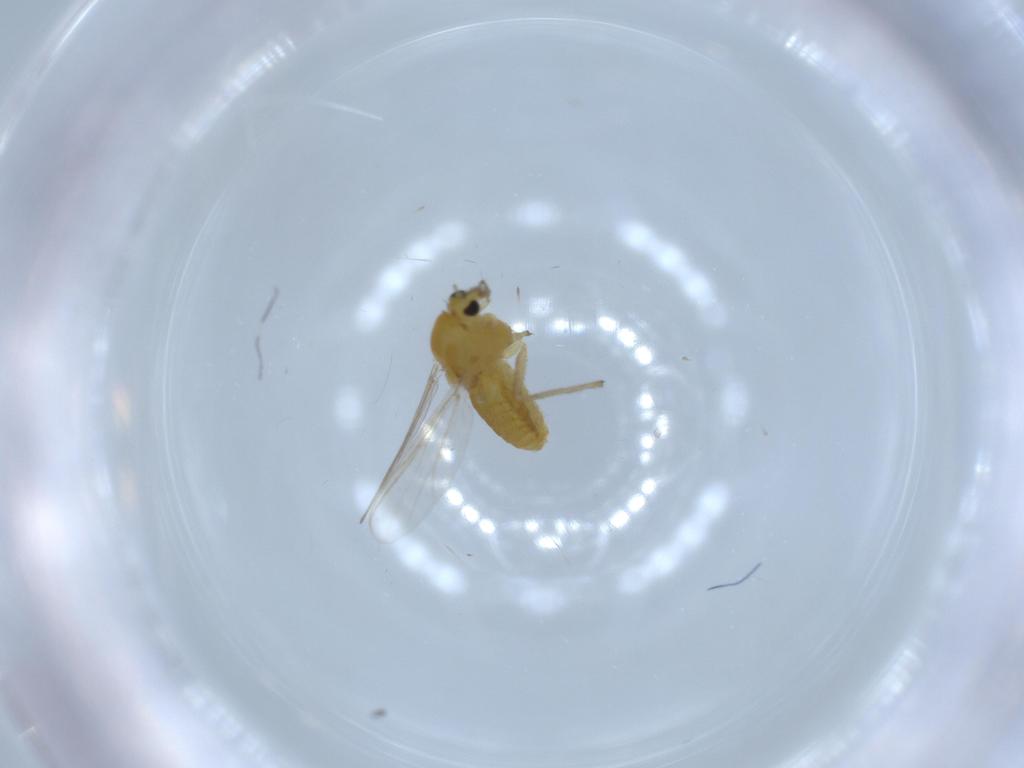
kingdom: Animalia
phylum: Arthropoda
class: Insecta
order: Diptera
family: Chironomidae
